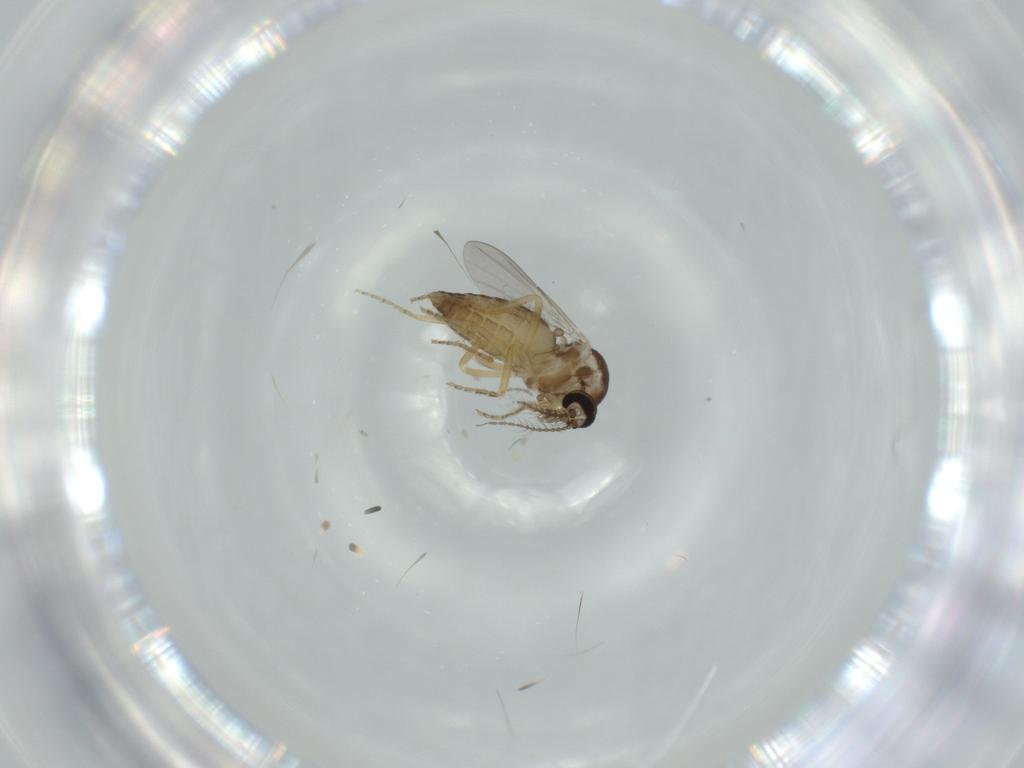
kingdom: Animalia
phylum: Arthropoda
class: Insecta
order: Diptera
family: Ceratopogonidae
